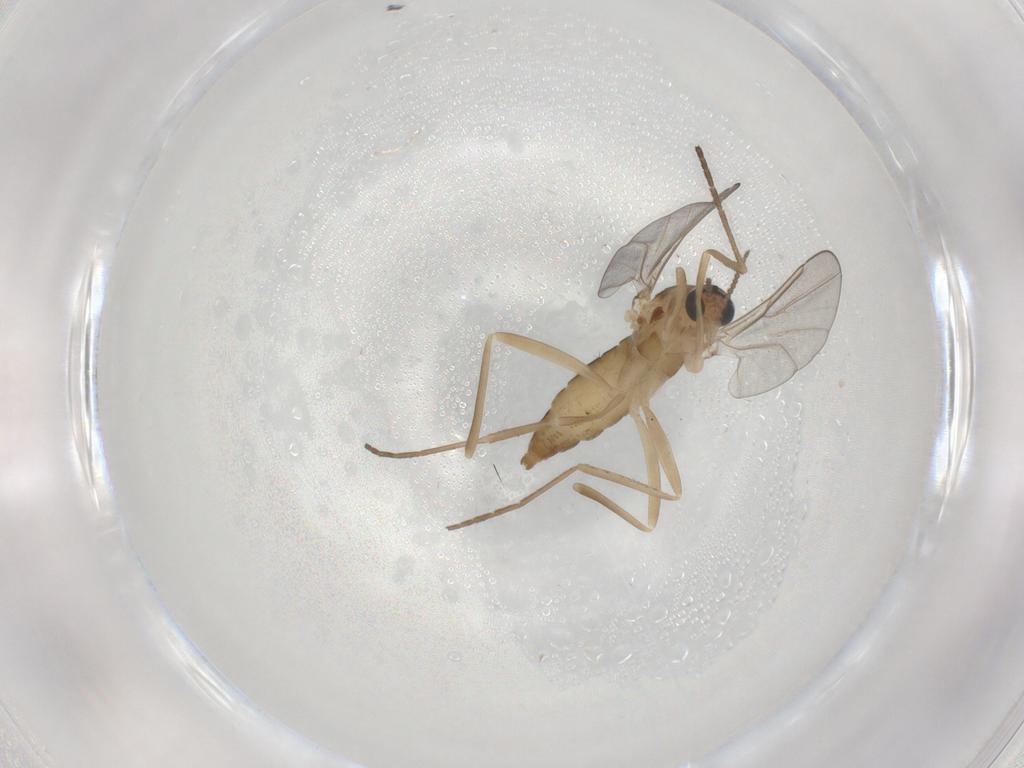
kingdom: Animalia
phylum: Arthropoda
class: Insecta
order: Diptera
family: Cecidomyiidae
